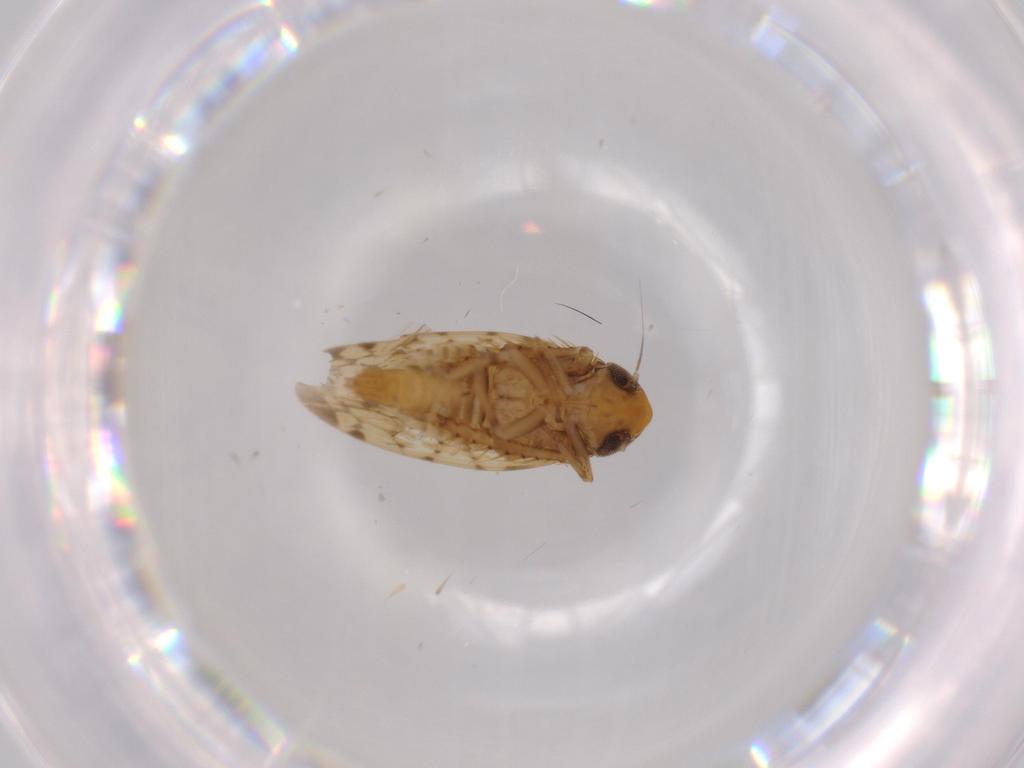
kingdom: Animalia
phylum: Arthropoda
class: Insecta
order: Hemiptera
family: Cicadellidae
